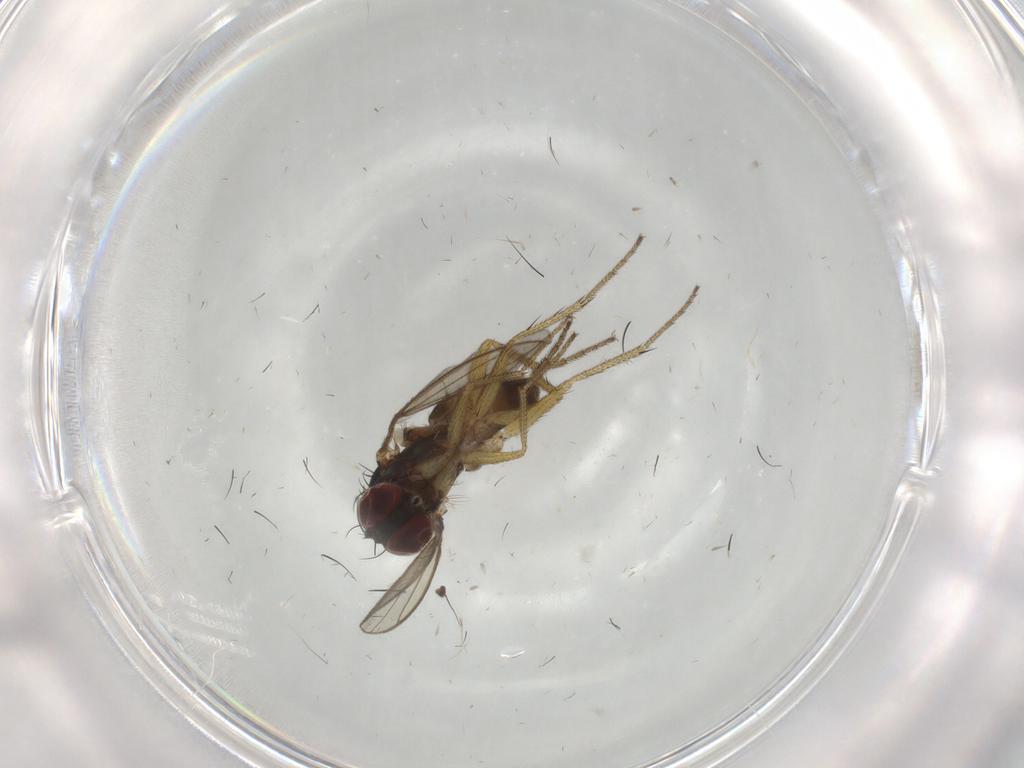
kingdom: Animalia
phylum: Arthropoda
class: Insecta
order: Diptera
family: Dolichopodidae
